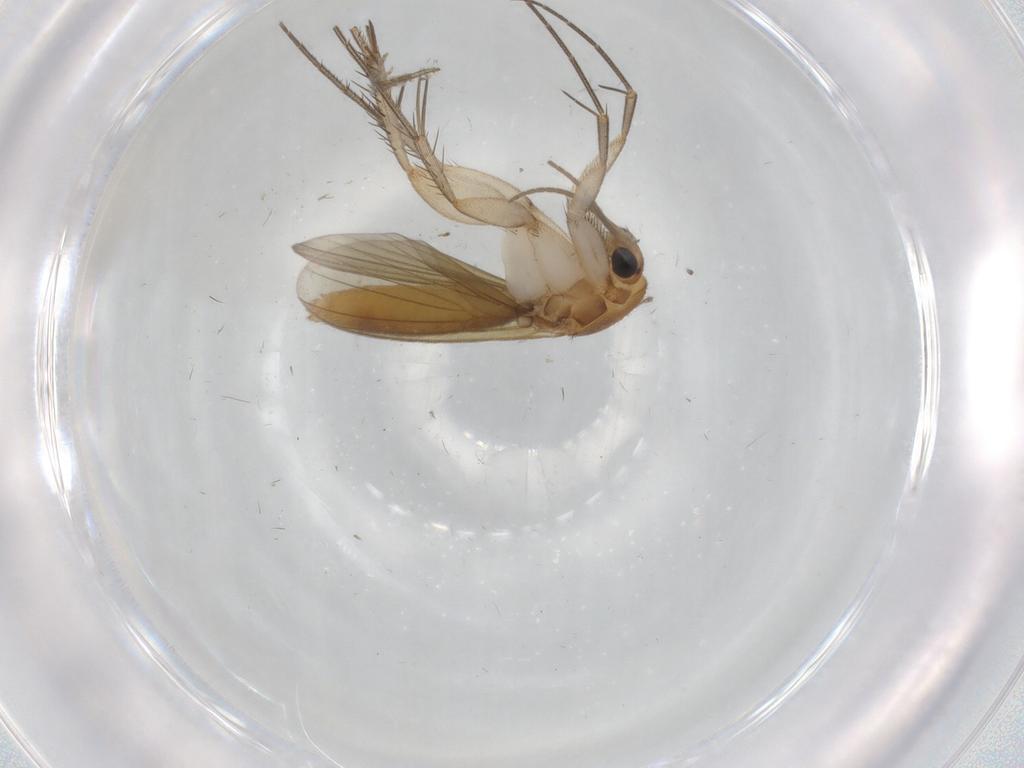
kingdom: Animalia
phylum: Arthropoda
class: Insecta
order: Diptera
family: Mycetophilidae
